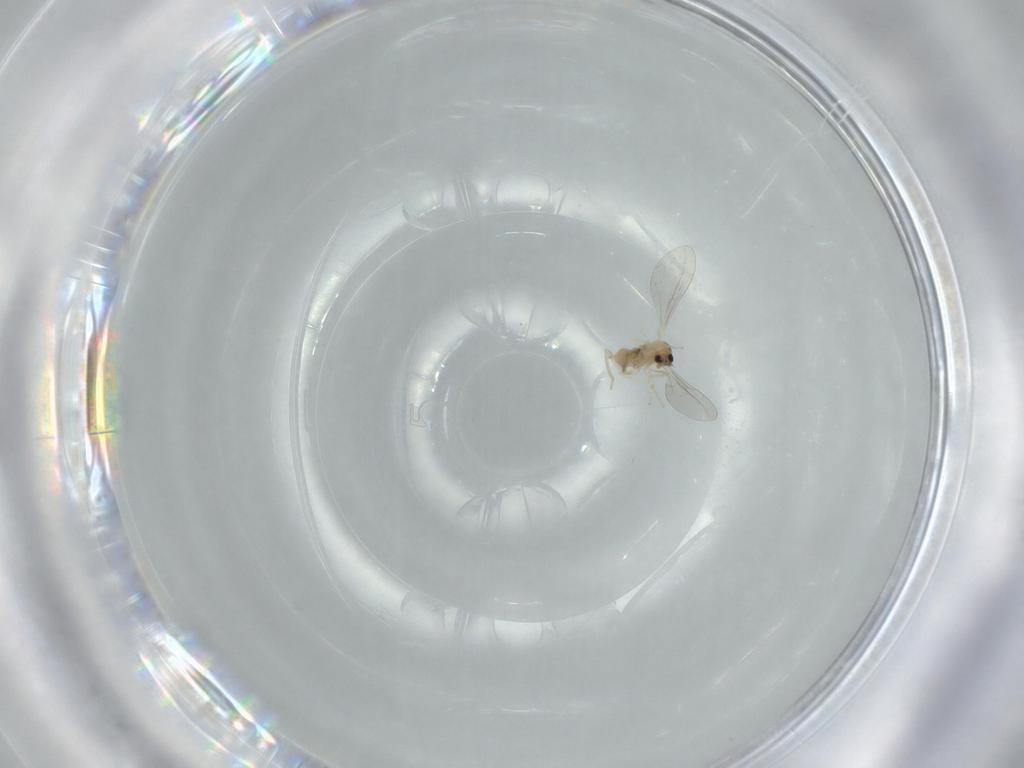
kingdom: Animalia
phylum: Arthropoda
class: Insecta
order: Diptera
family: Cecidomyiidae
